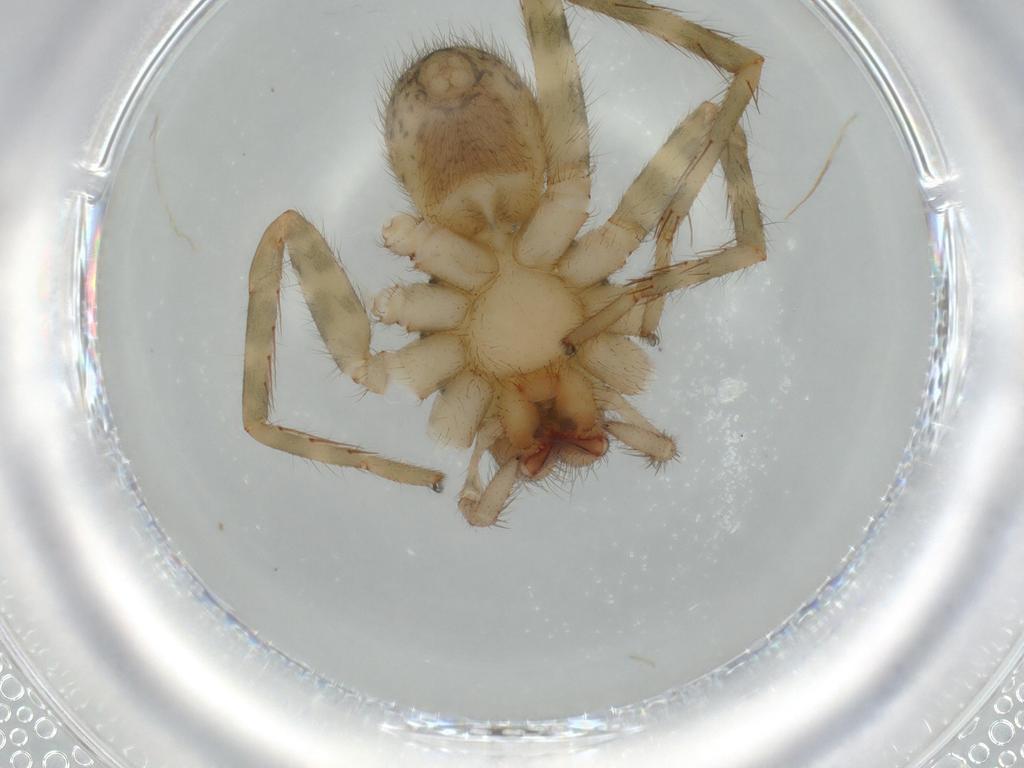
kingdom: Animalia
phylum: Arthropoda
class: Arachnida
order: Araneae
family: Ctenidae
